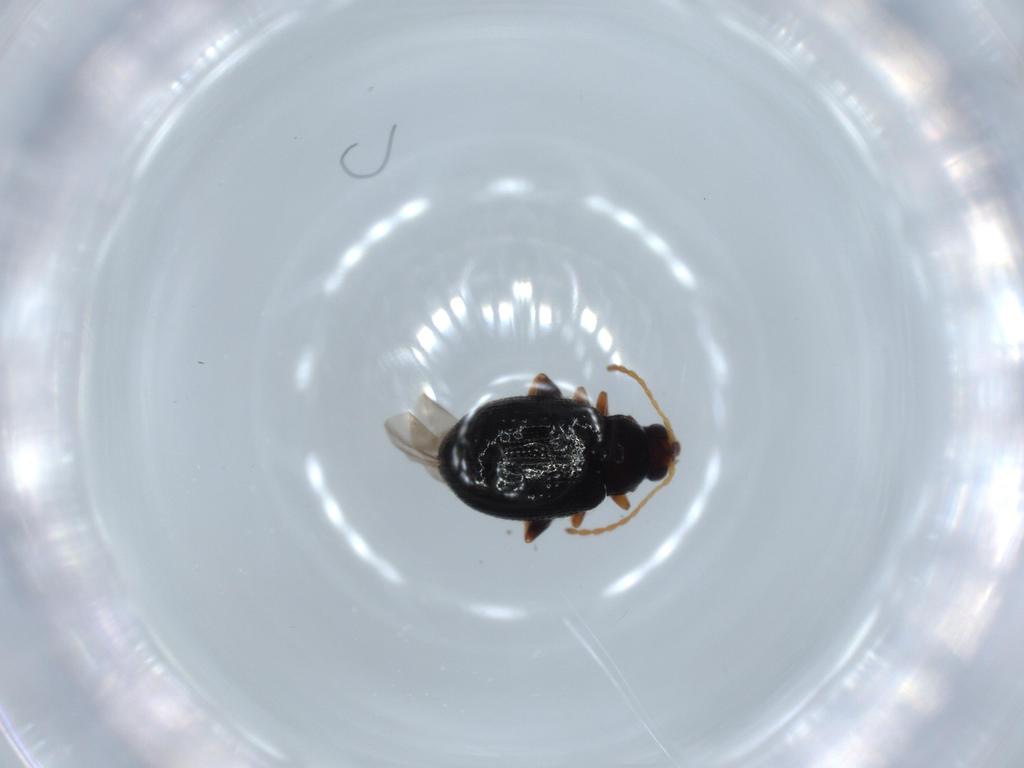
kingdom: Animalia
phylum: Arthropoda
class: Insecta
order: Coleoptera
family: Chrysomelidae
